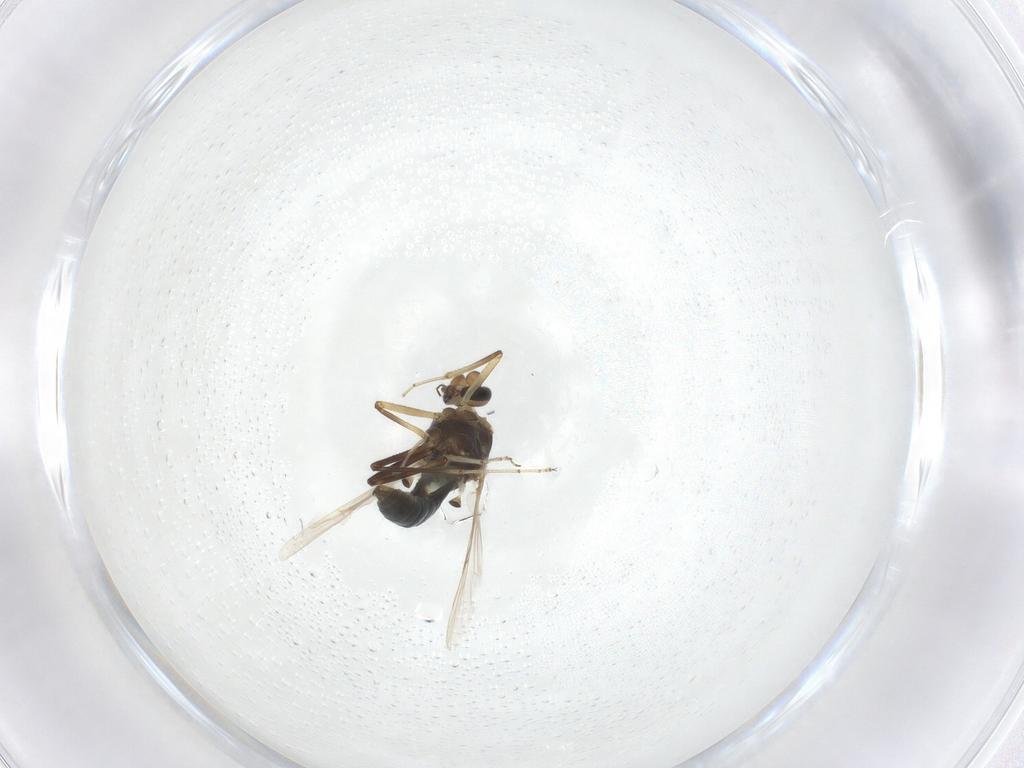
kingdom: Animalia
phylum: Arthropoda
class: Insecta
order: Diptera
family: Ceratopogonidae
